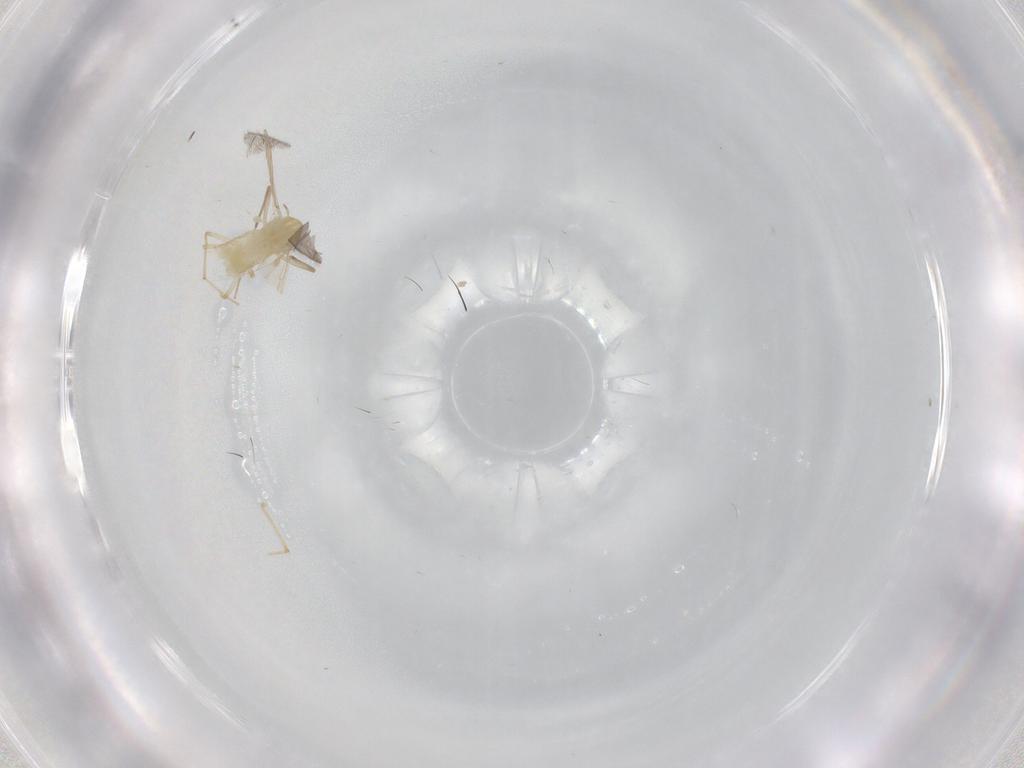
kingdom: Animalia
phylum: Arthropoda
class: Insecta
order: Diptera
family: Chironomidae
